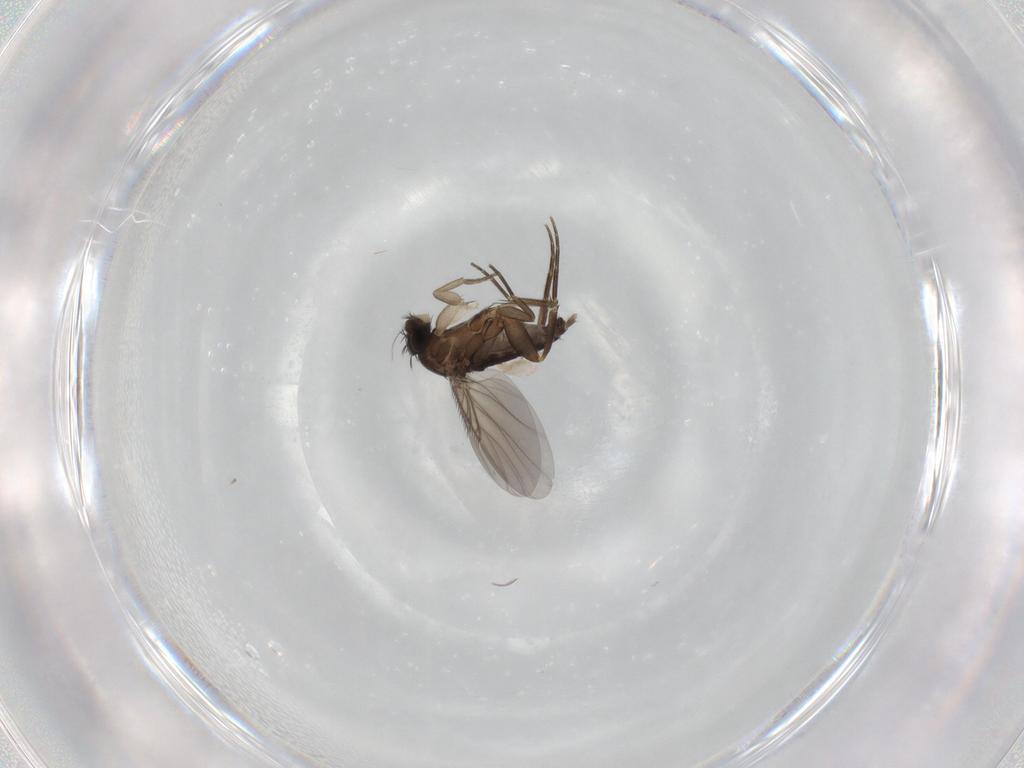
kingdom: Animalia
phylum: Arthropoda
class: Insecta
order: Diptera
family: Phoridae
